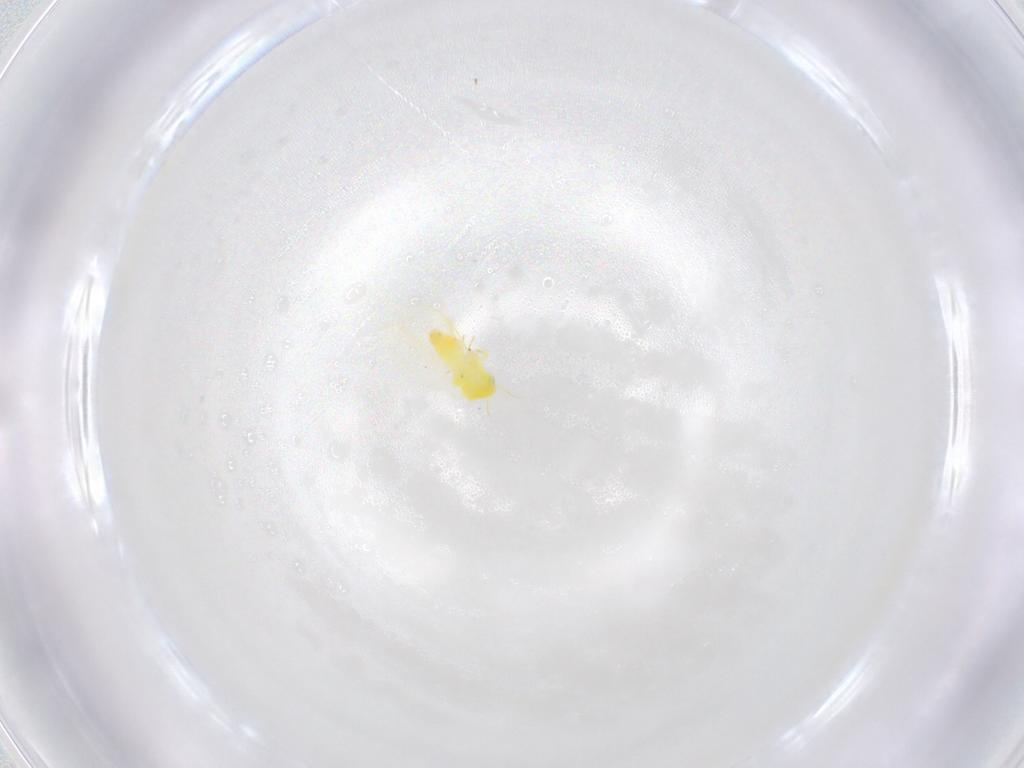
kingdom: Animalia
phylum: Arthropoda
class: Insecta
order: Hemiptera
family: Aleyrodidae
